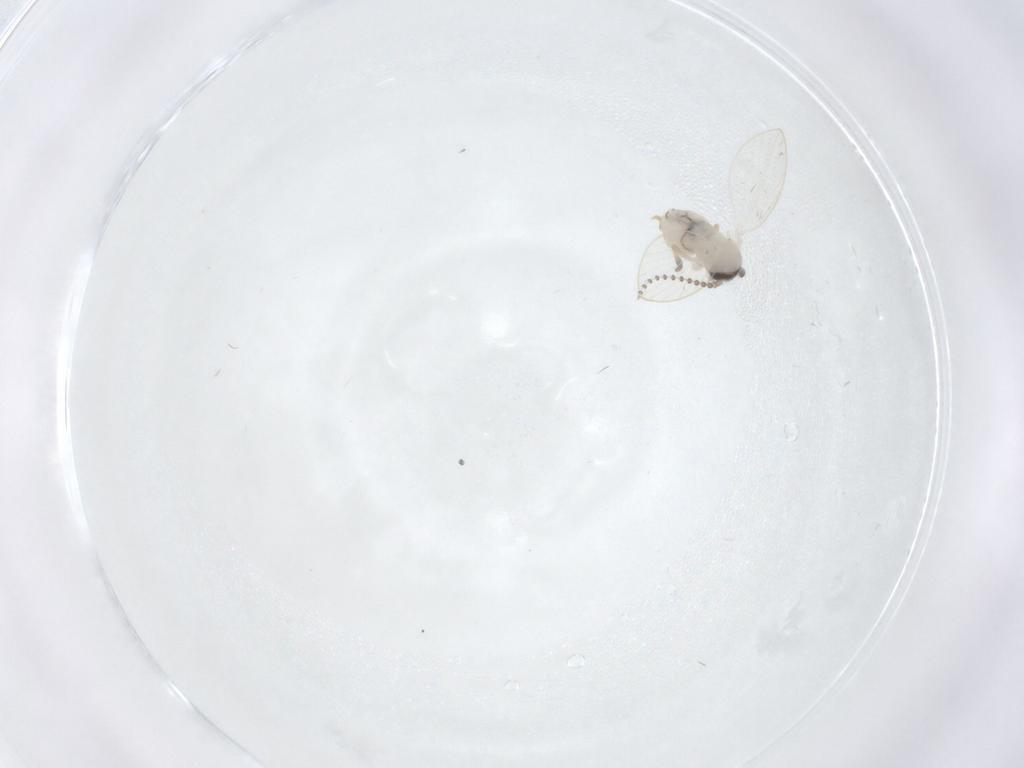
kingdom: Animalia
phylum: Arthropoda
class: Insecta
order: Diptera
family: Psychodidae
